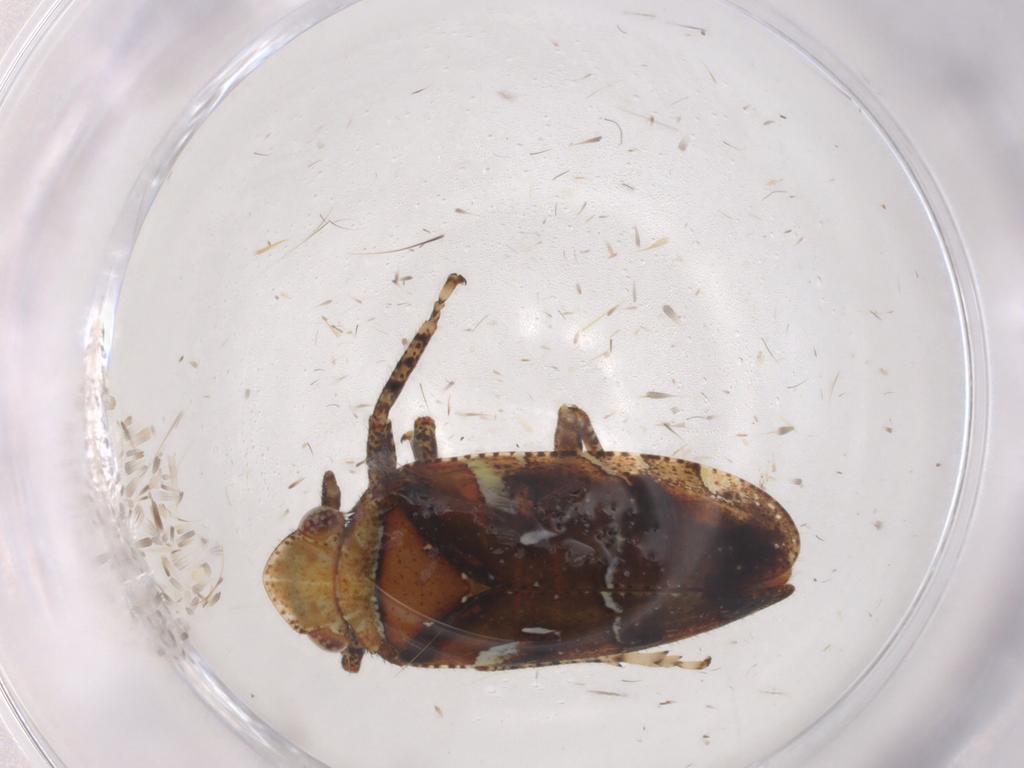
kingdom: Animalia
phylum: Arthropoda
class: Insecta
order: Hemiptera
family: Tettigometridae
